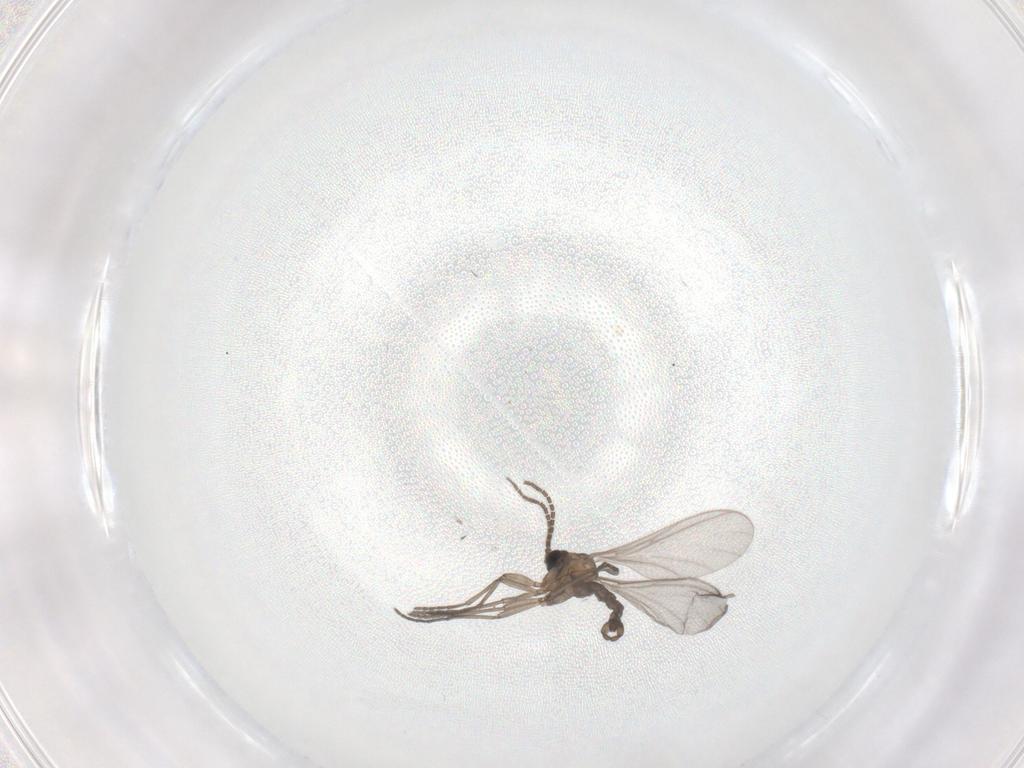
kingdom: Animalia
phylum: Arthropoda
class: Insecta
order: Diptera
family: Sciaridae
